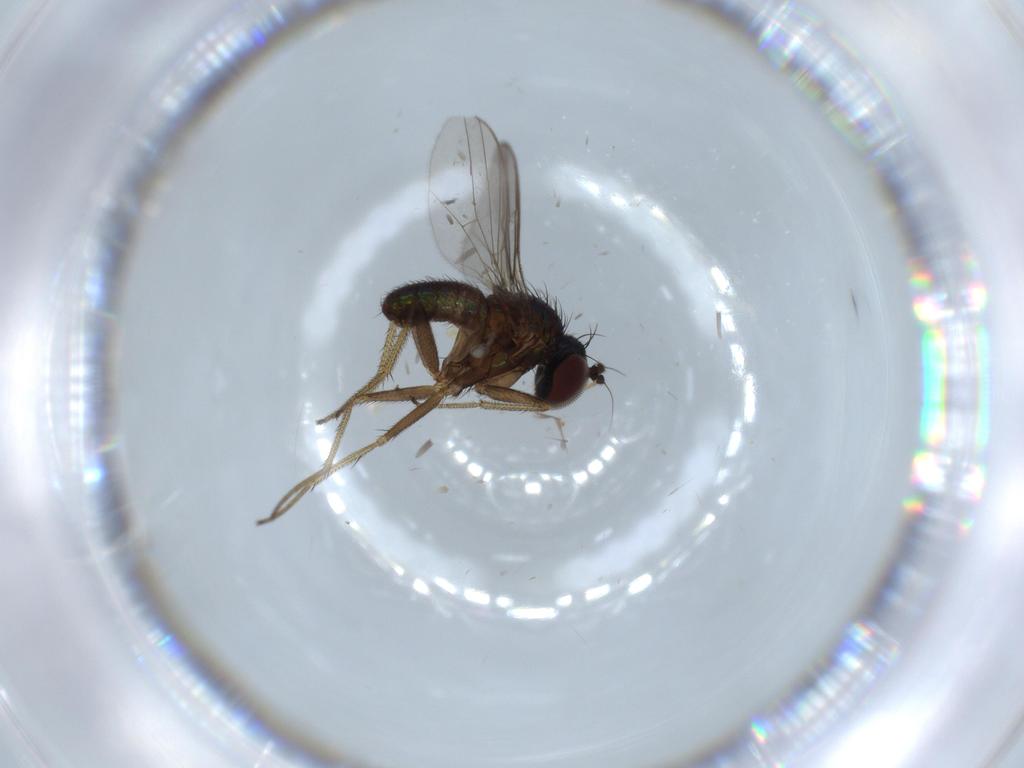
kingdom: Animalia
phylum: Arthropoda
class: Insecta
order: Diptera
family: Dolichopodidae
